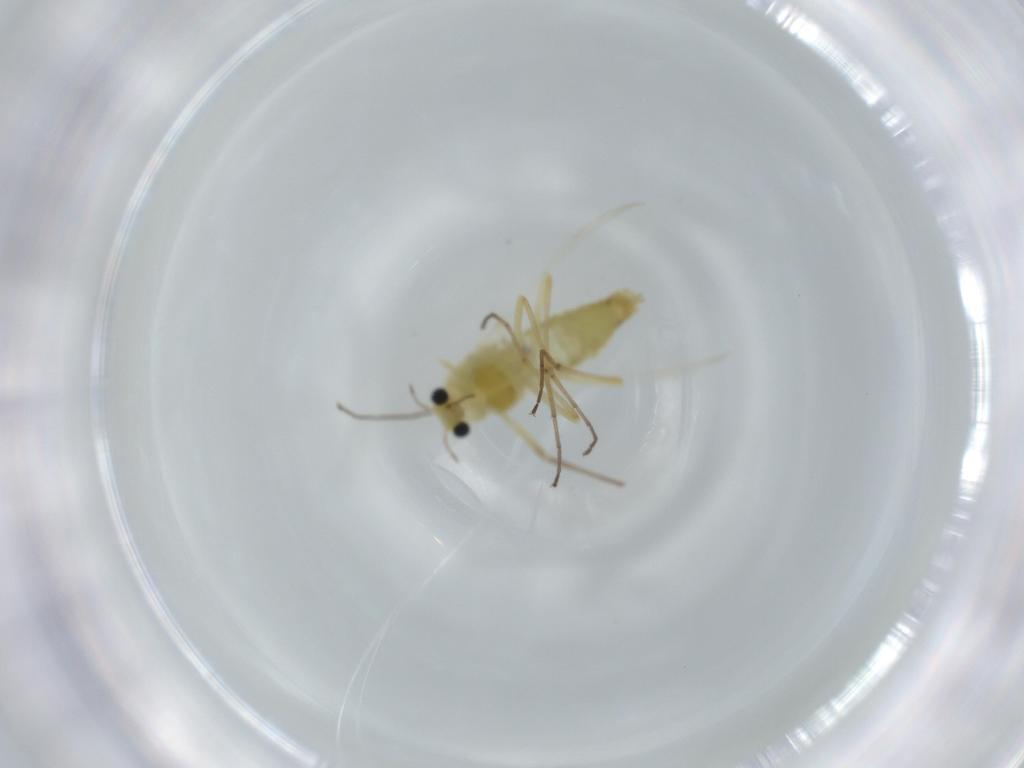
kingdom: Animalia
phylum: Arthropoda
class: Insecta
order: Diptera
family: Chironomidae
